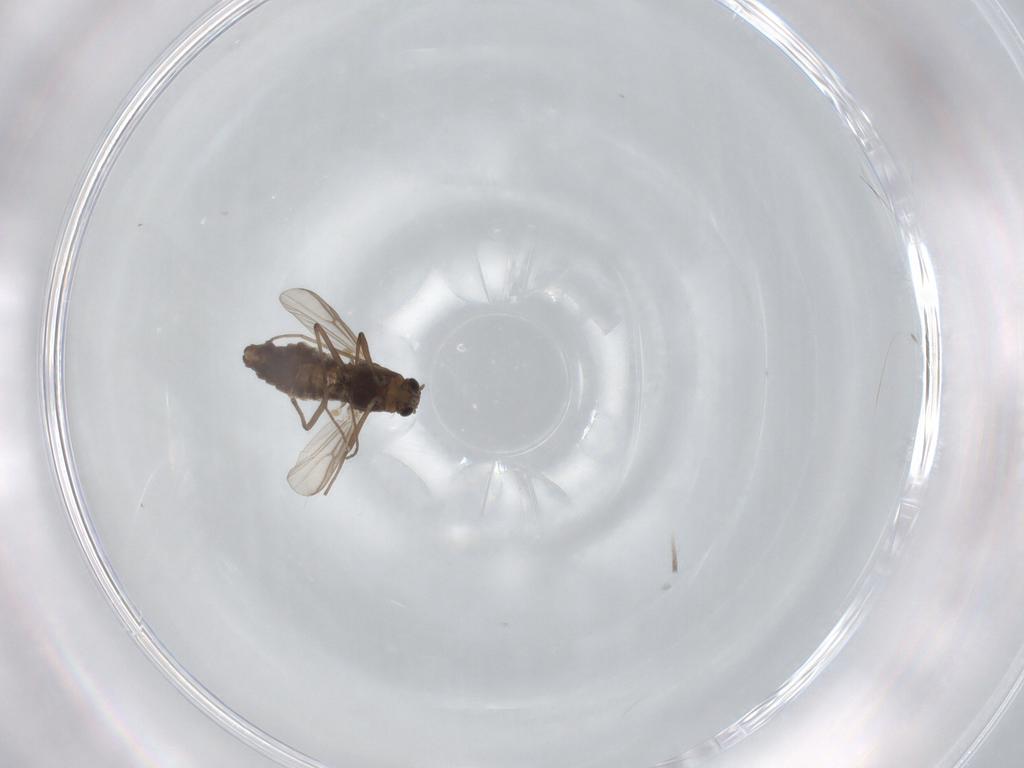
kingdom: Animalia
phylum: Arthropoda
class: Insecta
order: Diptera
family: Chironomidae
